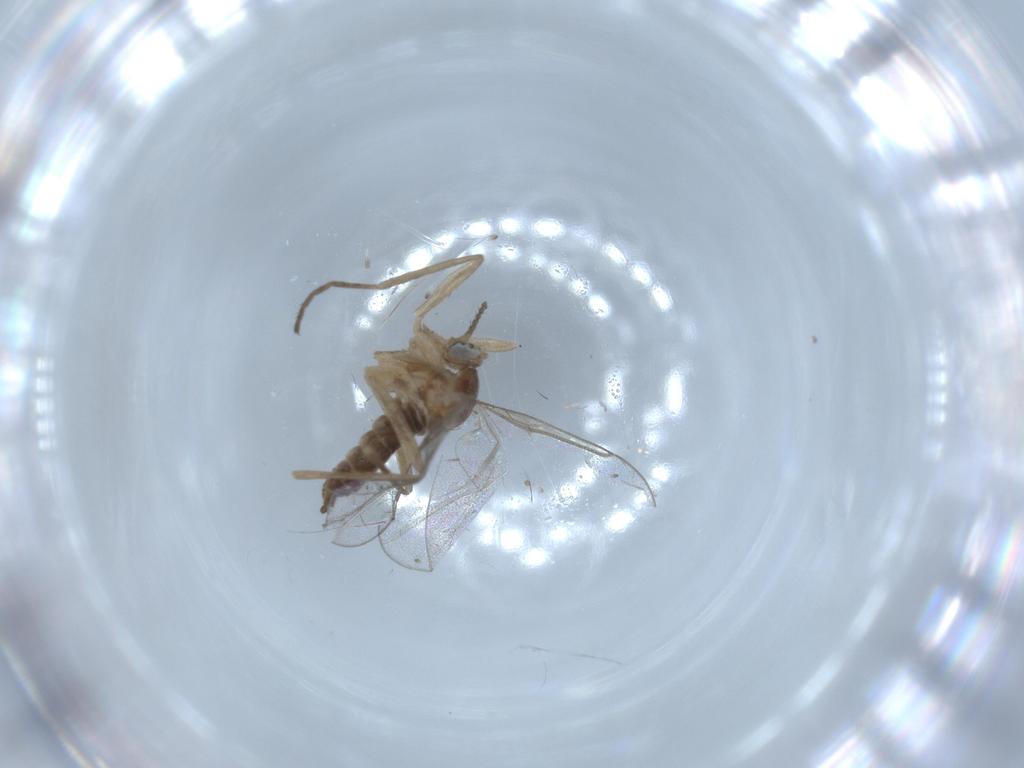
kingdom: Animalia
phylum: Arthropoda
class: Insecta
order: Diptera
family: Cecidomyiidae
